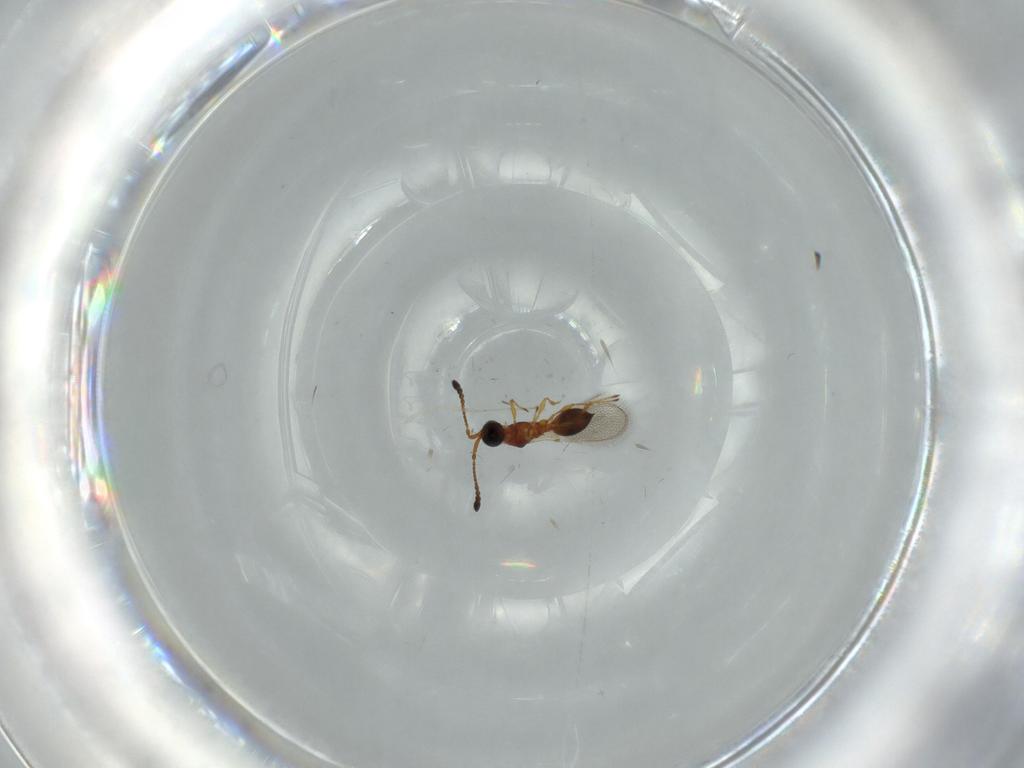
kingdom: Animalia
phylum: Arthropoda
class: Insecta
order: Hymenoptera
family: Diapriidae
